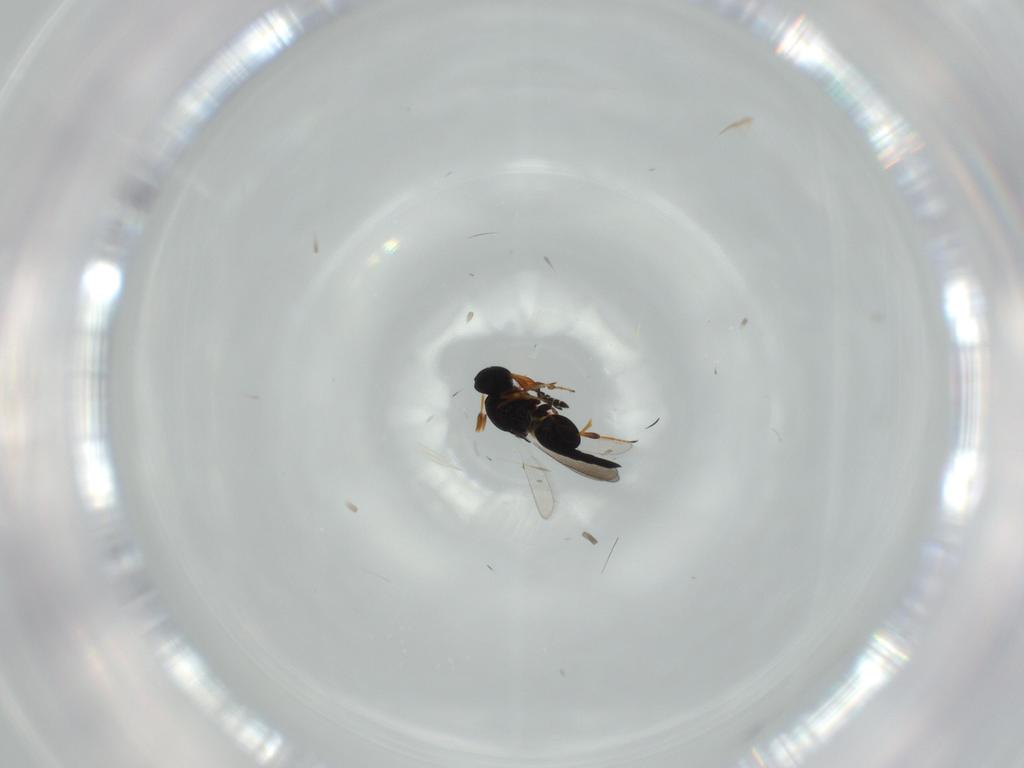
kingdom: Animalia
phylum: Arthropoda
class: Insecta
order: Hymenoptera
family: Platygastridae
